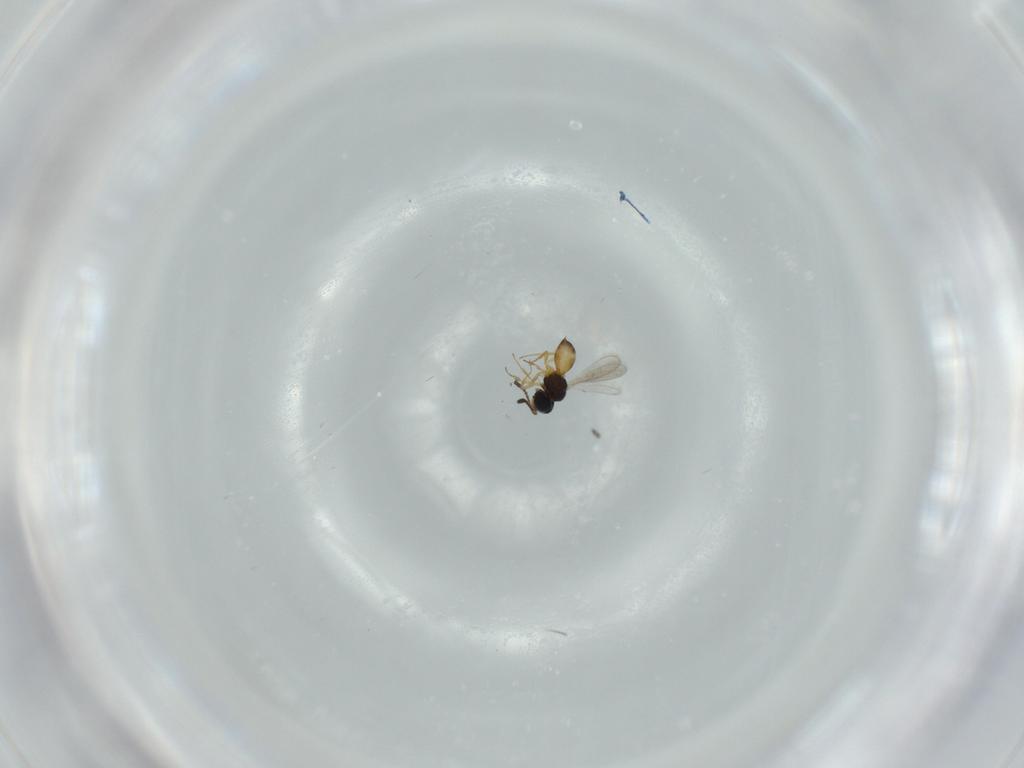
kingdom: Animalia
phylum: Arthropoda
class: Insecta
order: Hymenoptera
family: Scelionidae
